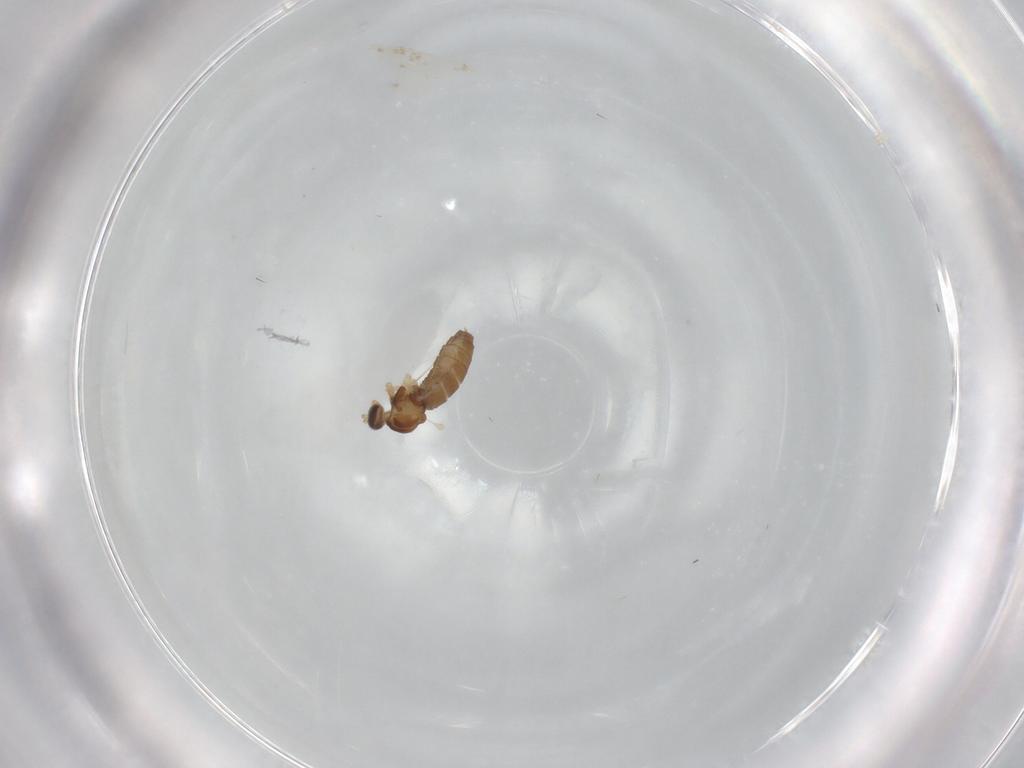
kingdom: Animalia
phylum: Arthropoda
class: Insecta
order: Diptera
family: Cecidomyiidae
